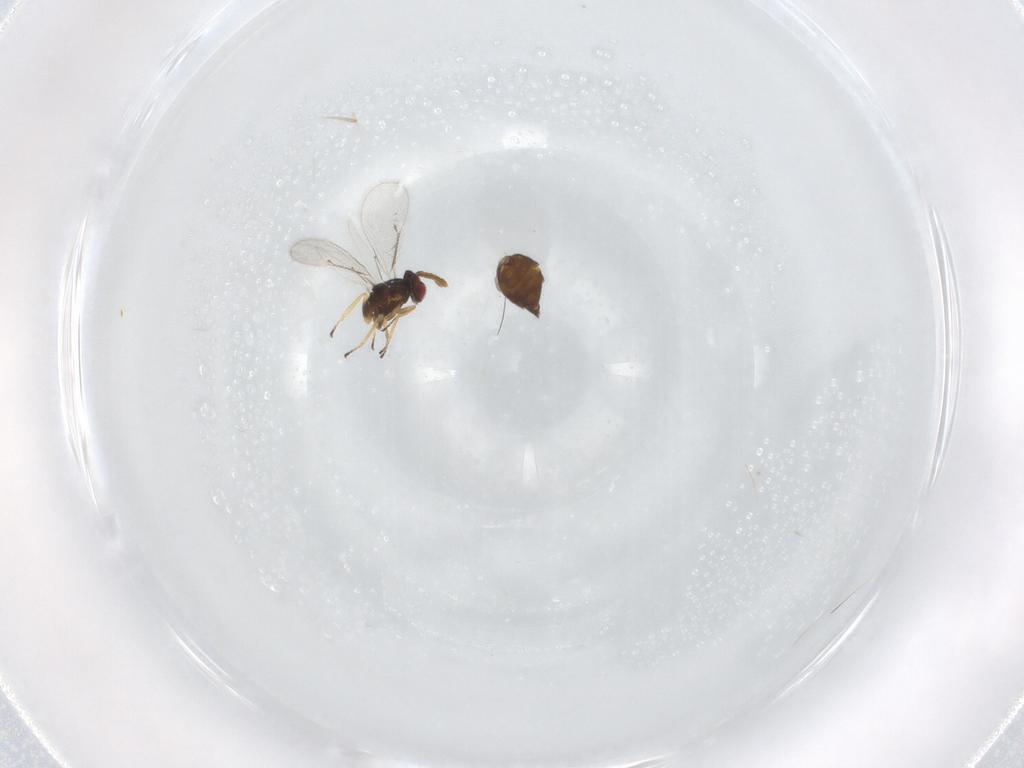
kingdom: Animalia
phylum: Arthropoda
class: Insecta
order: Hymenoptera
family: Eulophidae
